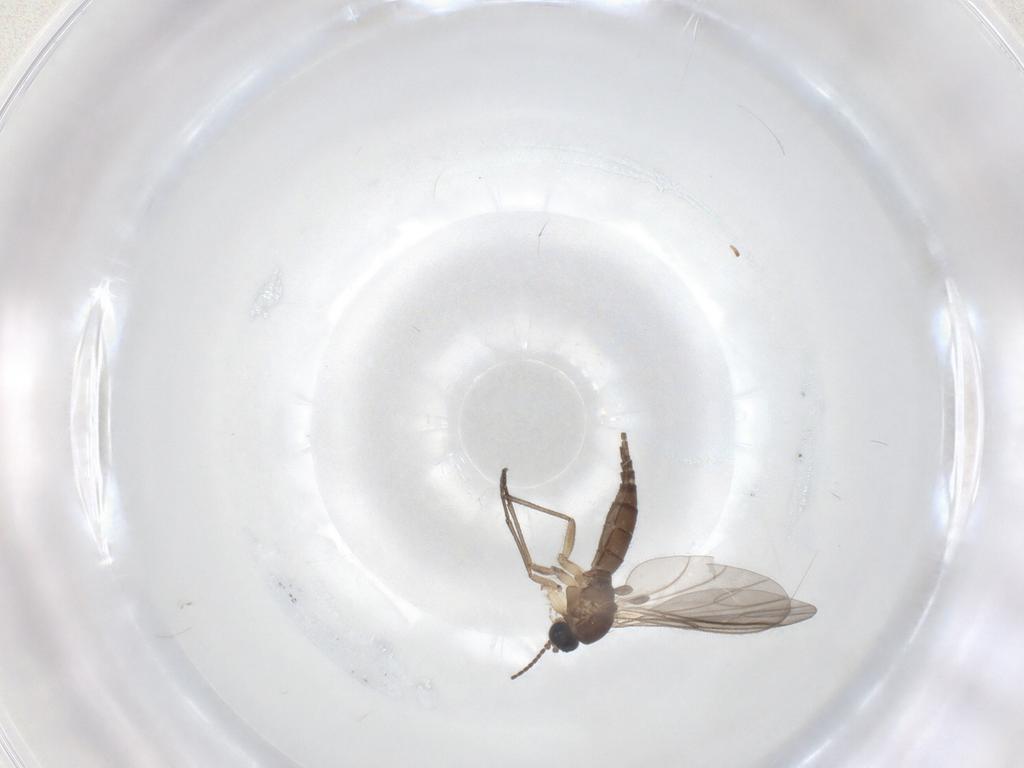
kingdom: Animalia
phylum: Arthropoda
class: Insecta
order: Diptera
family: Sciaridae
